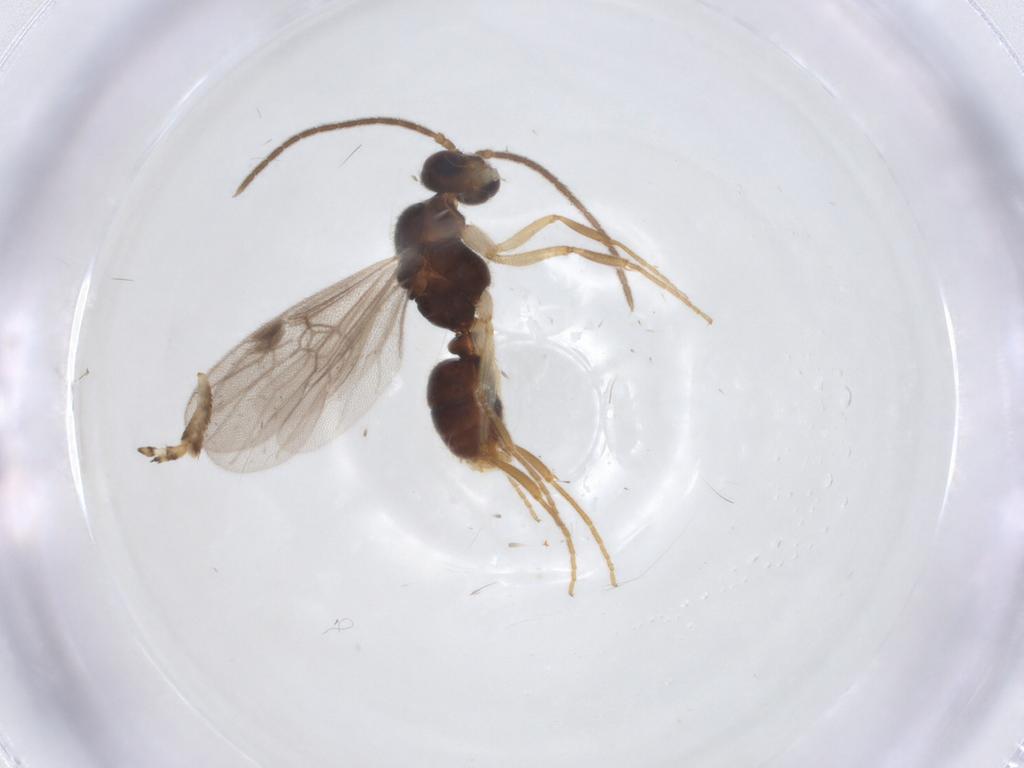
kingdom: Animalia
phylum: Arthropoda
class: Insecta
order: Hymenoptera
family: Formicidae
